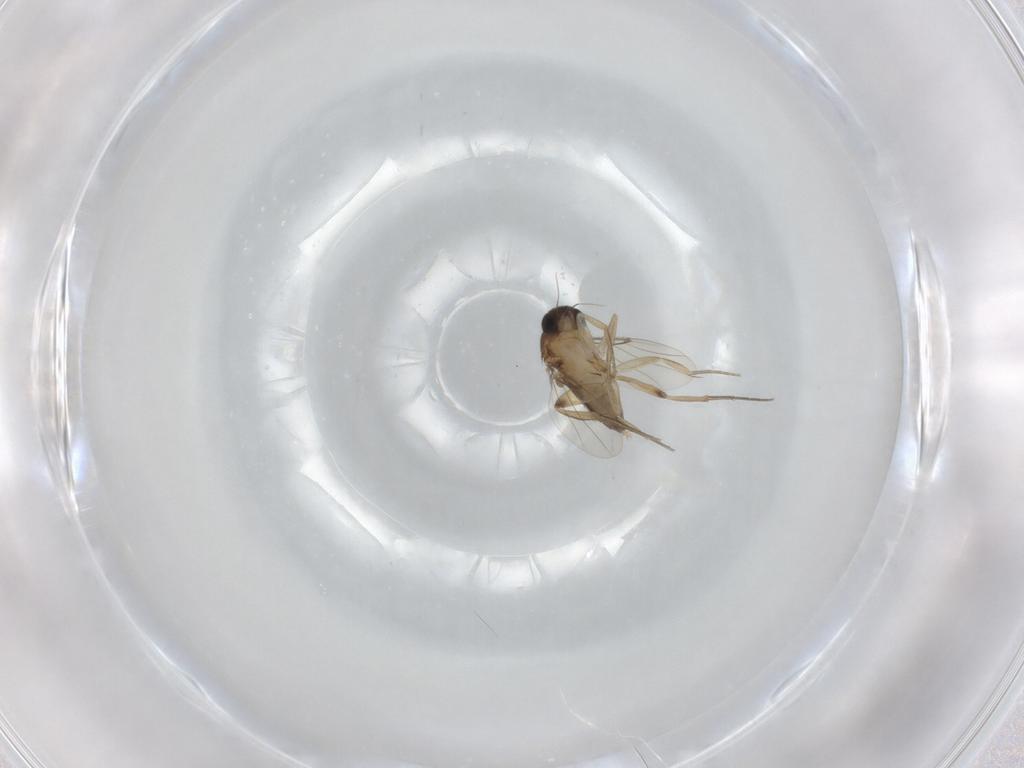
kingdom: Animalia
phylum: Arthropoda
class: Insecta
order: Diptera
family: Phoridae
